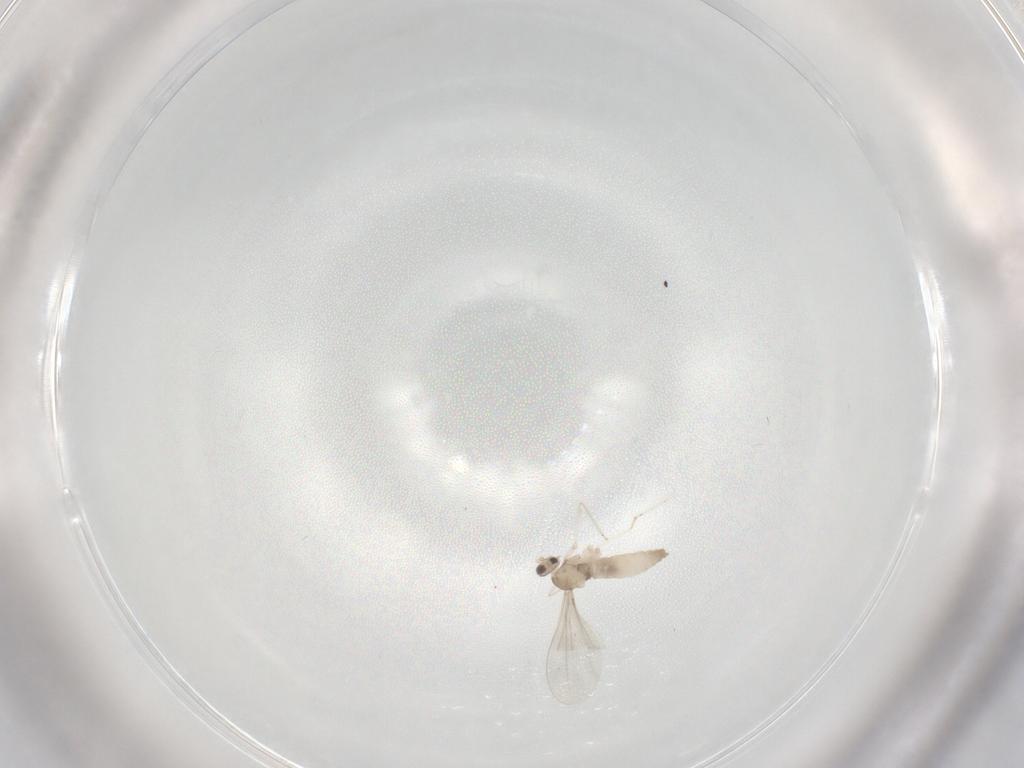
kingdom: Animalia
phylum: Arthropoda
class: Insecta
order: Diptera
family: Cecidomyiidae
